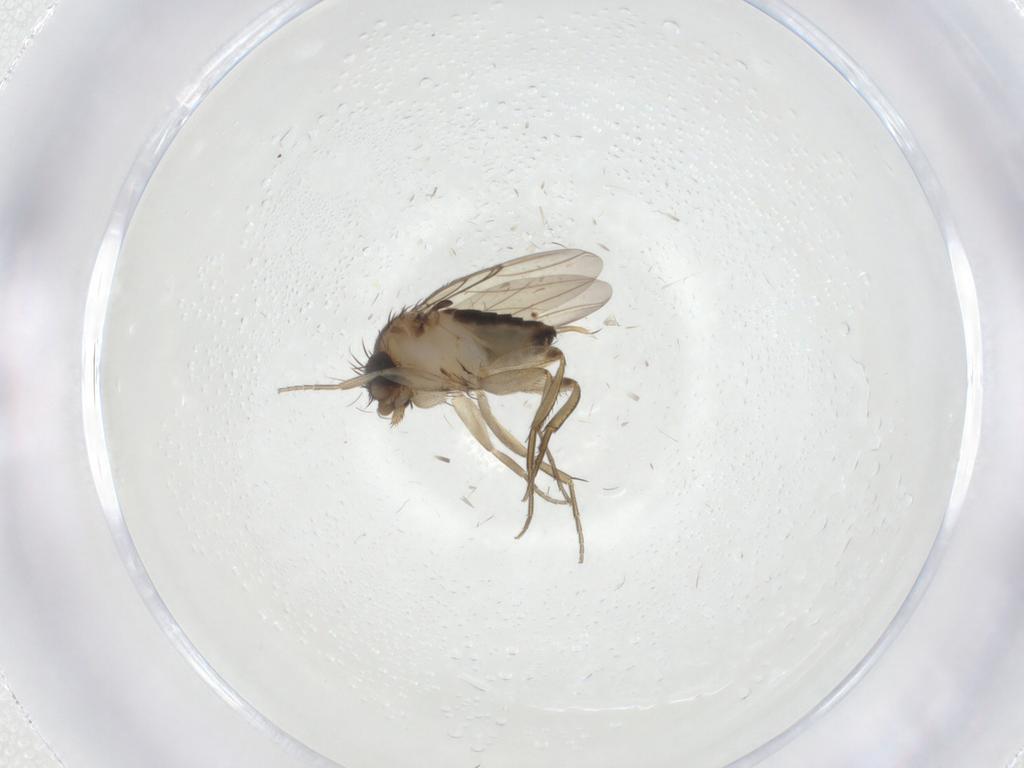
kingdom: Animalia
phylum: Arthropoda
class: Insecta
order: Diptera
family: Phoridae
